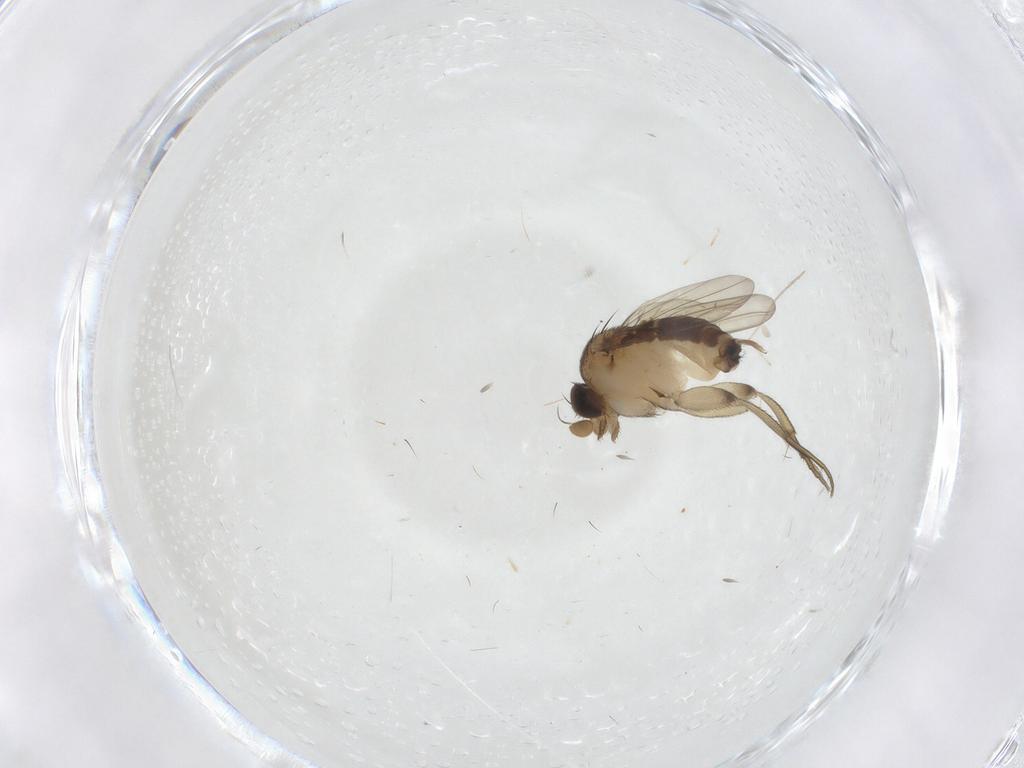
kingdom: Animalia
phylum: Arthropoda
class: Insecta
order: Diptera
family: Phoridae
